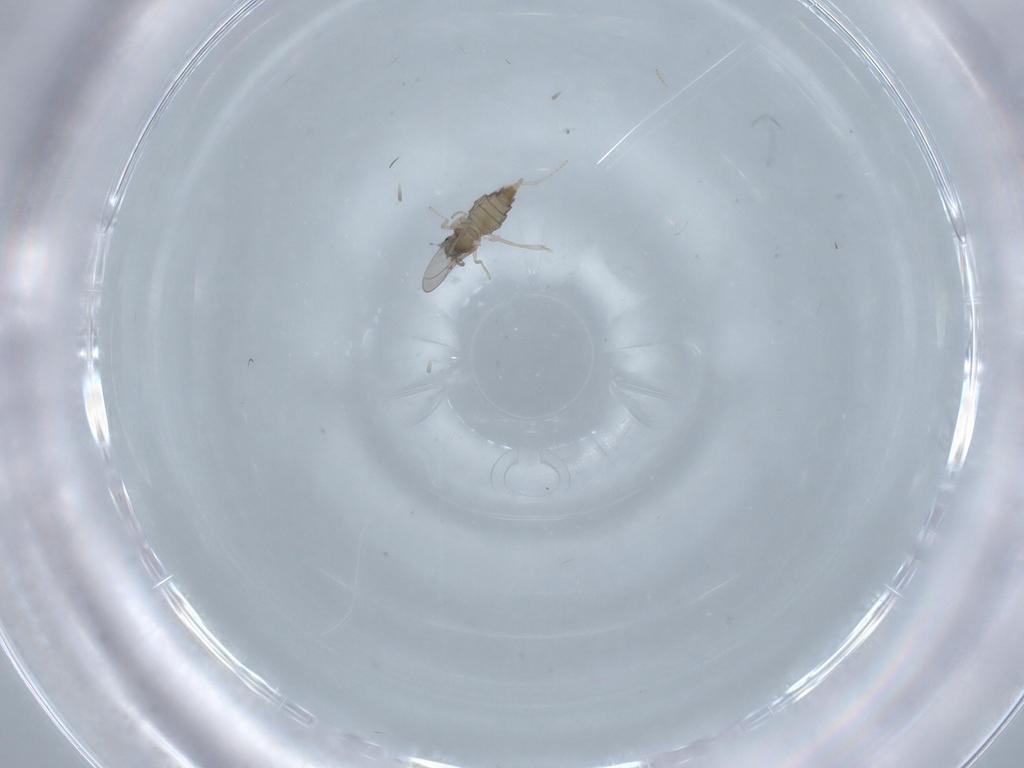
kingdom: Animalia
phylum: Arthropoda
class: Insecta
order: Diptera
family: Cecidomyiidae
